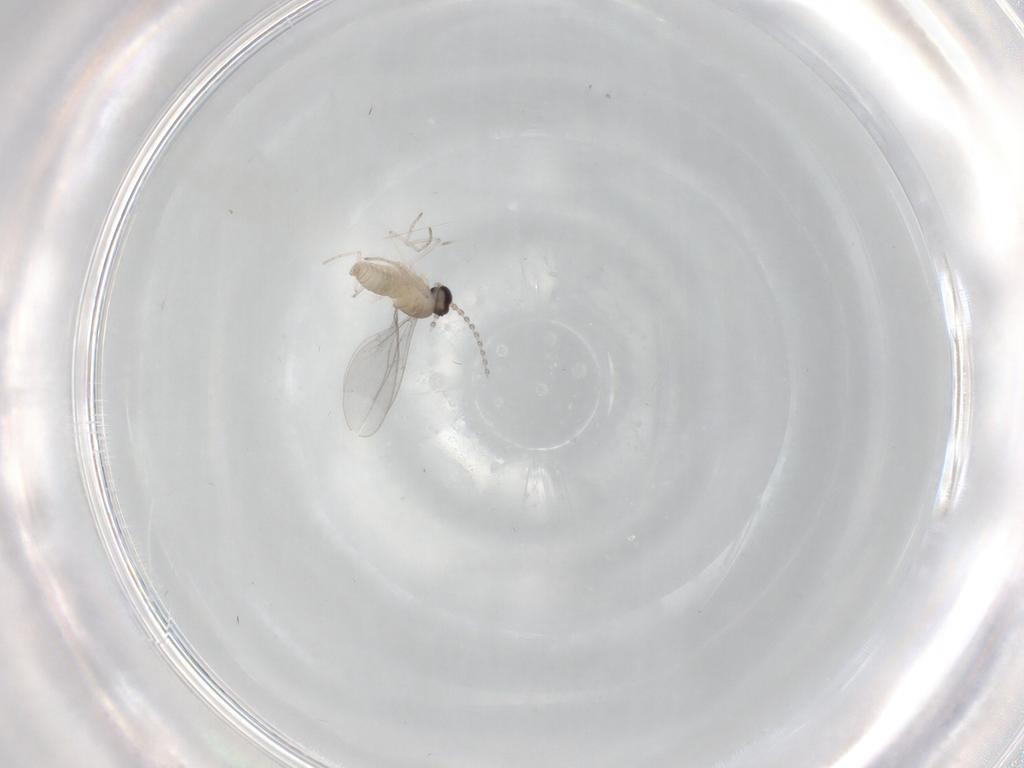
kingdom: Animalia
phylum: Arthropoda
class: Insecta
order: Diptera
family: Cecidomyiidae
